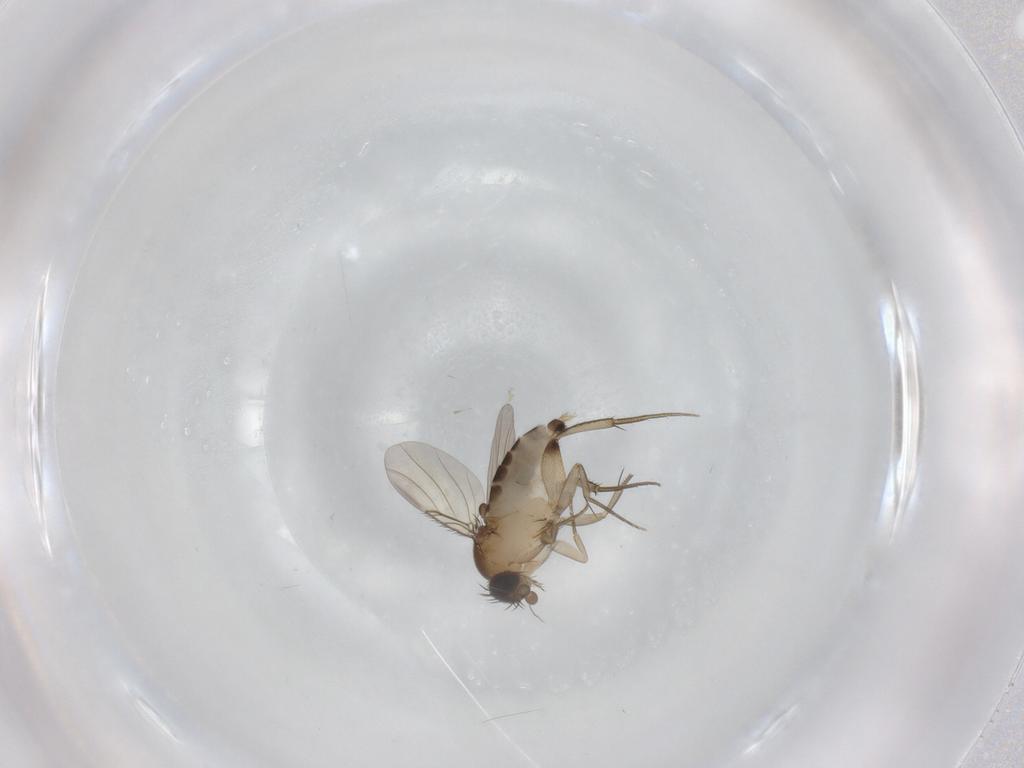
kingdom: Animalia
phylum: Arthropoda
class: Insecta
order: Diptera
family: Phoridae
